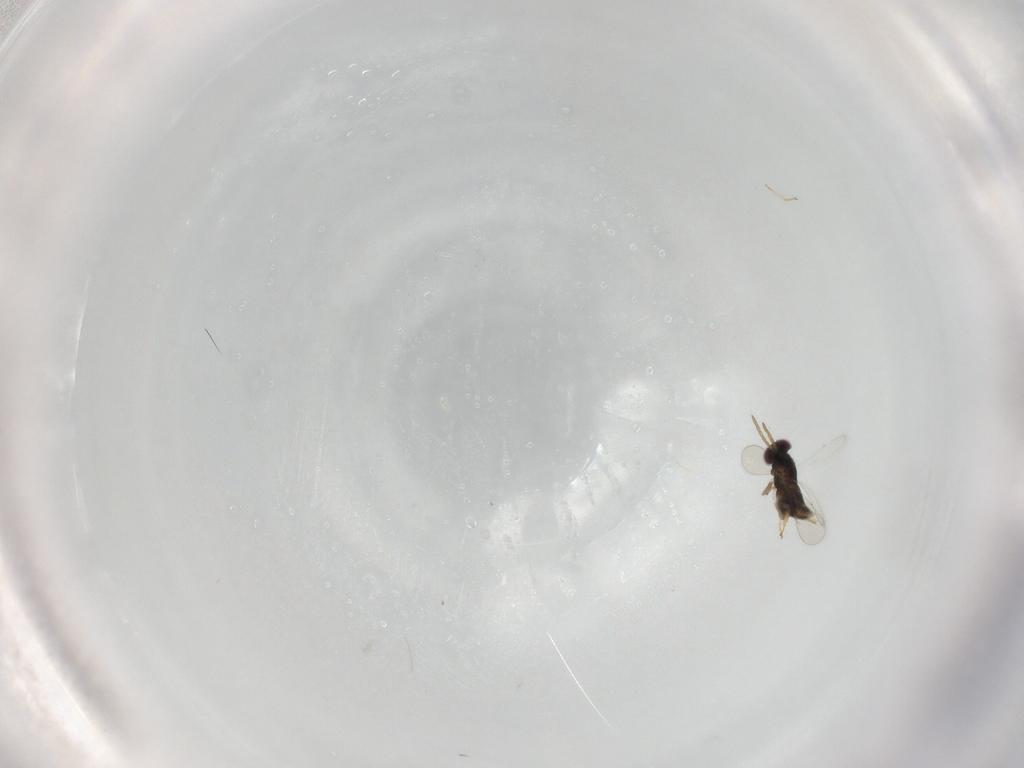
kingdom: Animalia
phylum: Arthropoda
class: Insecta
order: Hymenoptera
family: Aphelinidae
